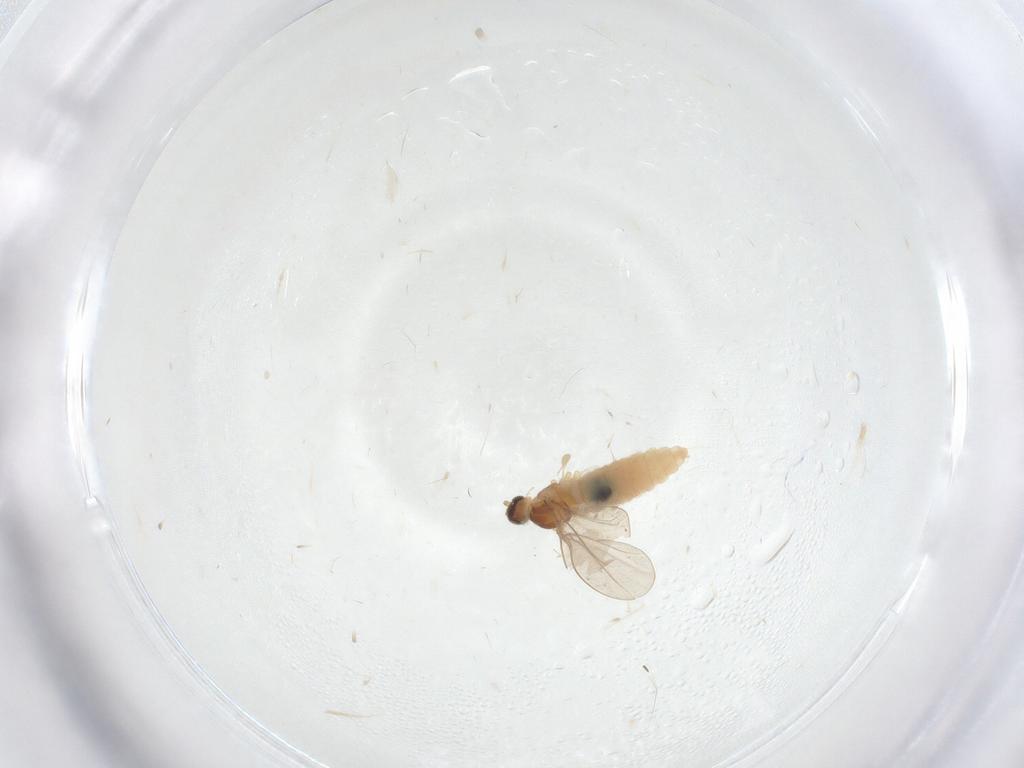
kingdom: Animalia
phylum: Arthropoda
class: Insecta
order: Diptera
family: Cecidomyiidae
